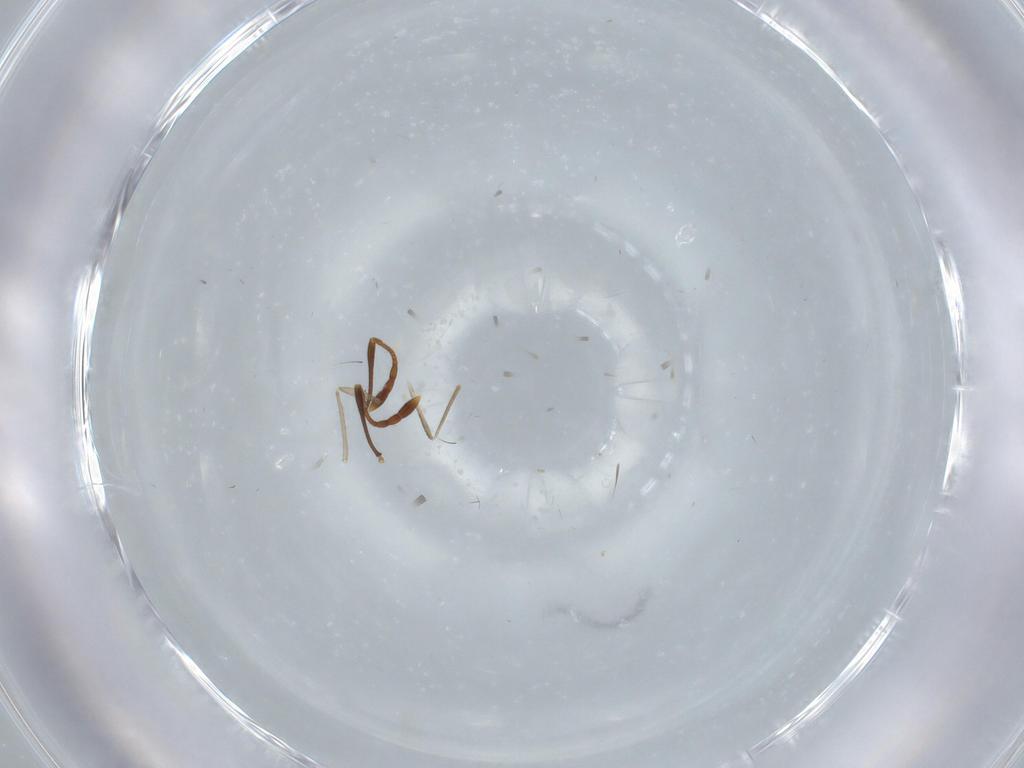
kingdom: Animalia
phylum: Arthropoda
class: Insecta
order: Diptera
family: Cecidomyiidae
